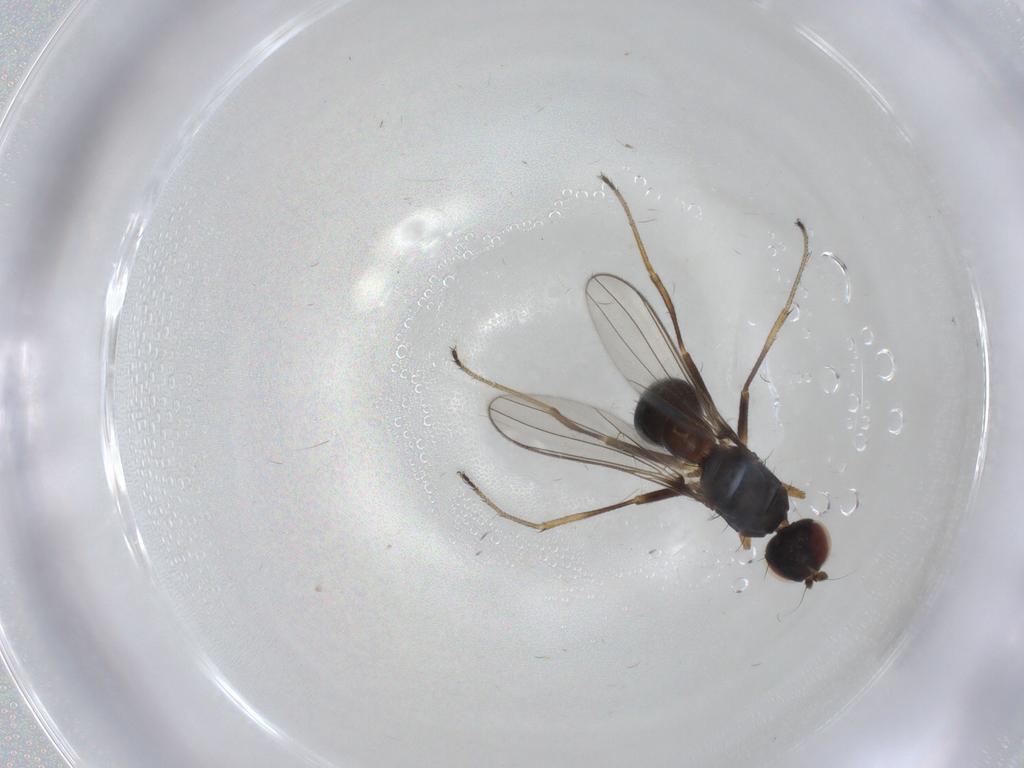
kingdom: Animalia
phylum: Arthropoda
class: Insecta
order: Diptera
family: Sepsidae
